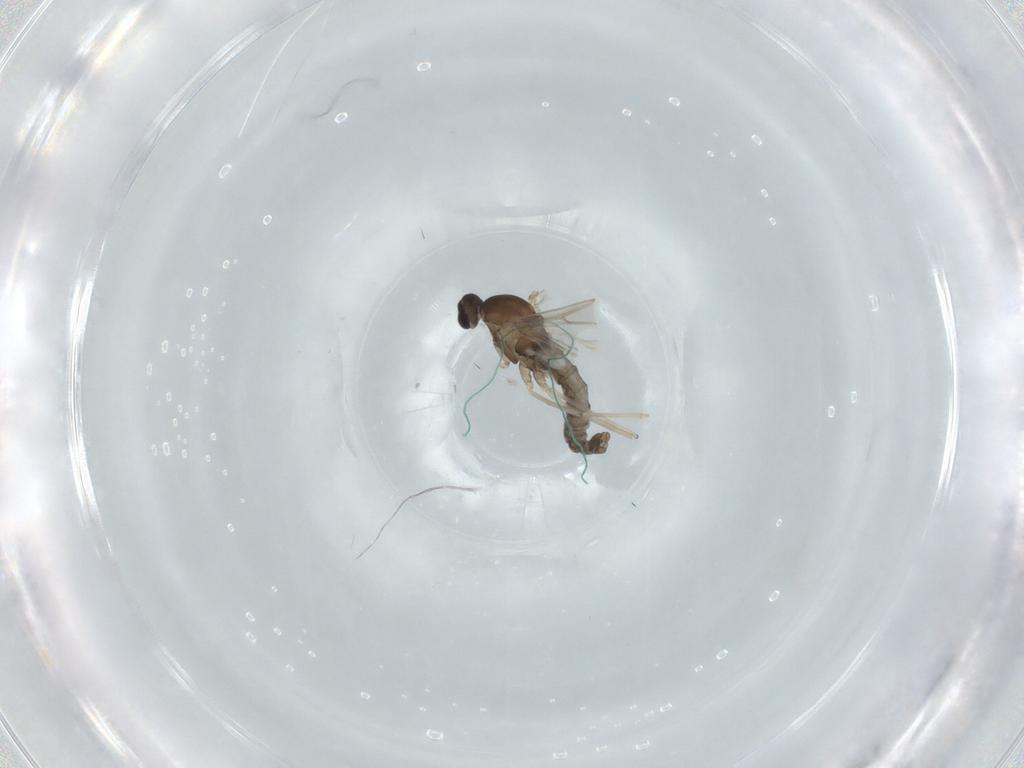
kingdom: Animalia
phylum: Arthropoda
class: Insecta
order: Diptera
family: Cecidomyiidae
